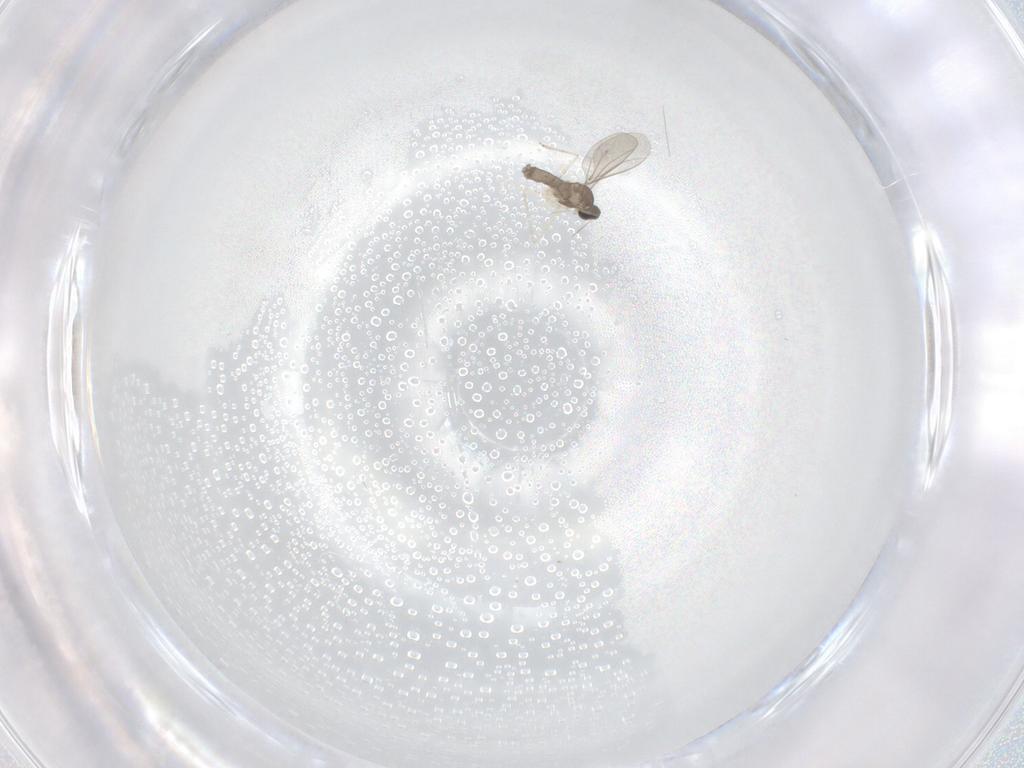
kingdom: Animalia
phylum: Arthropoda
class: Insecta
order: Diptera
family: Cecidomyiidae
